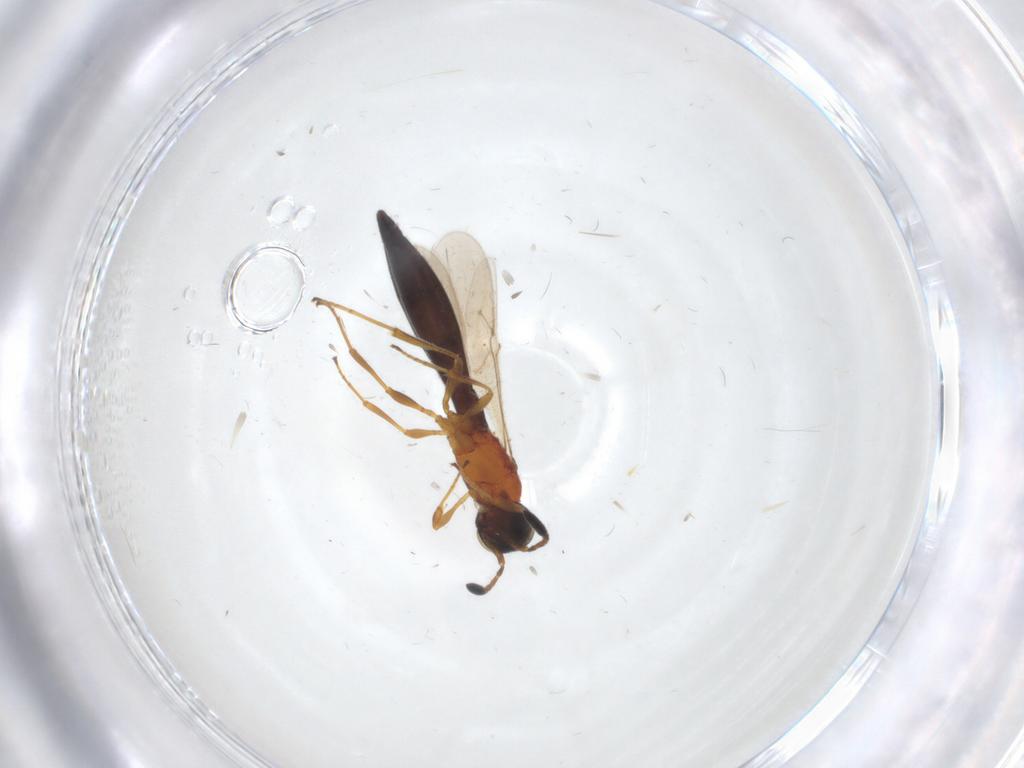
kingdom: Animalia
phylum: Arthropoda
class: Insecta
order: Hymenoptera
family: Scelionidae
